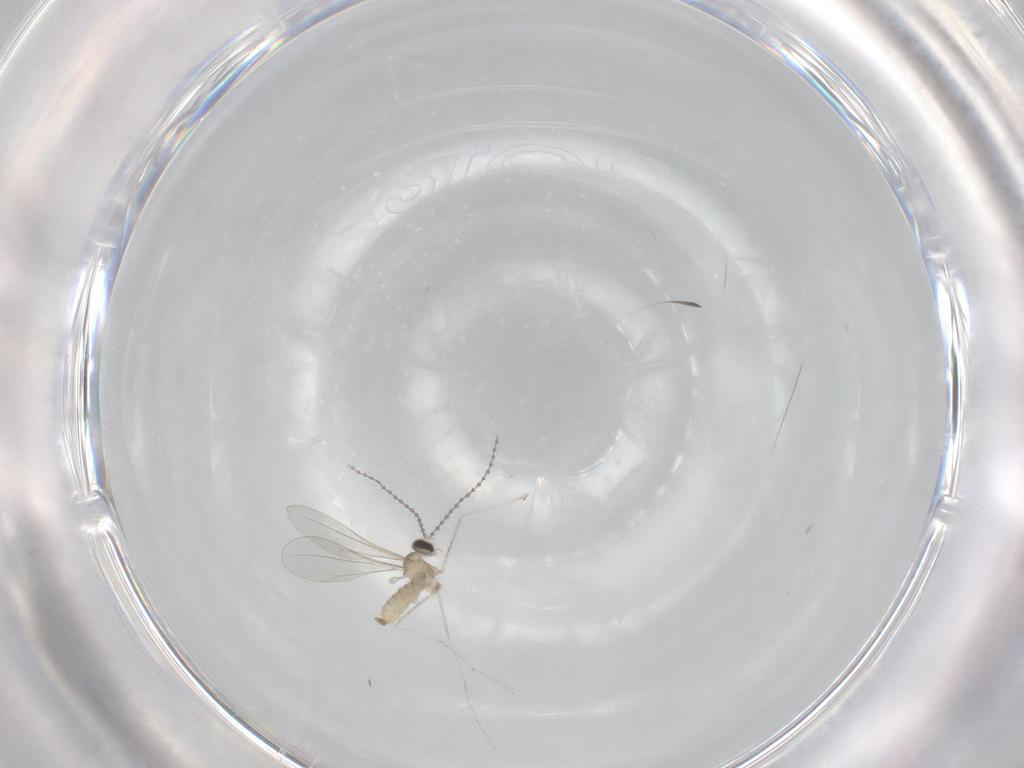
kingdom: Animalia
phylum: Arthropoda
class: Insecta
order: Diptera
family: Cecidomyiidae
